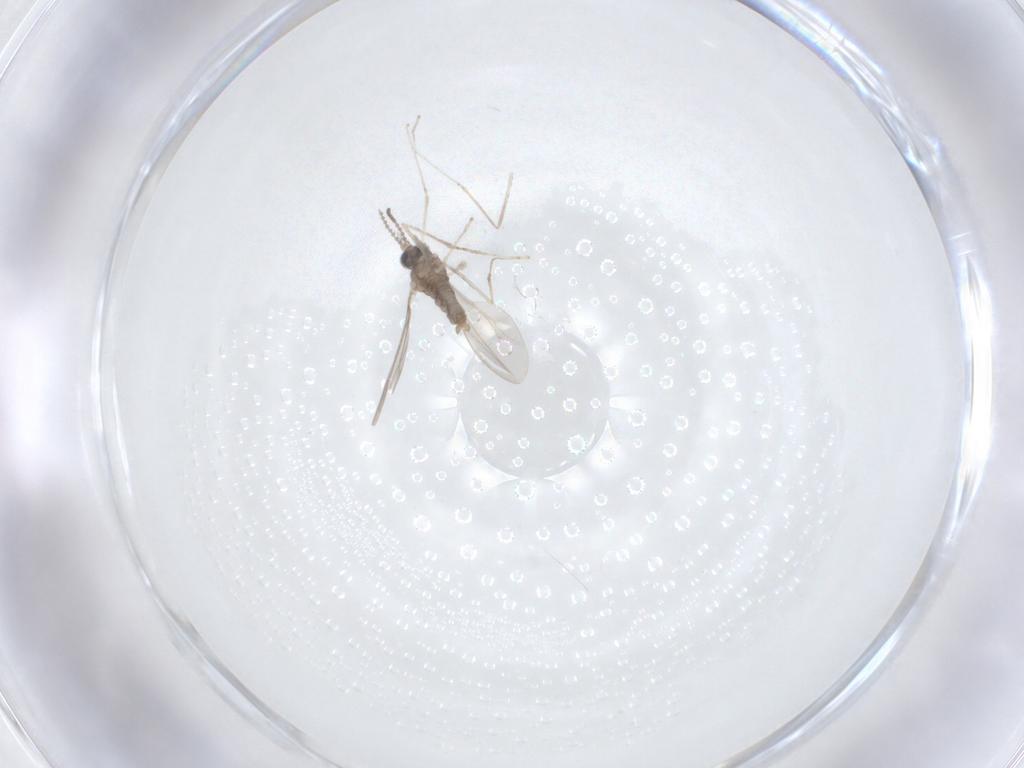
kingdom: Animalia
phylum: Arthropoda
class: Insecta
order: Diptera
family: Cecidomyiidae
